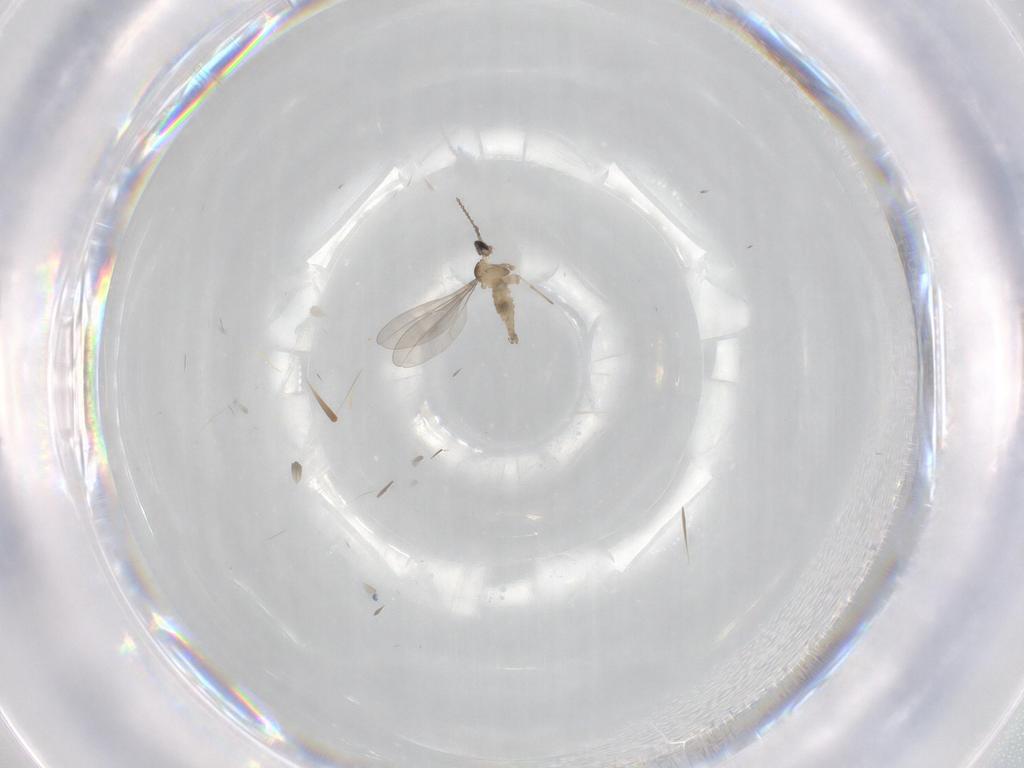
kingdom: Animalia
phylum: Arthropoda
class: Insecta
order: Diptera
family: Cecidomyiidae
